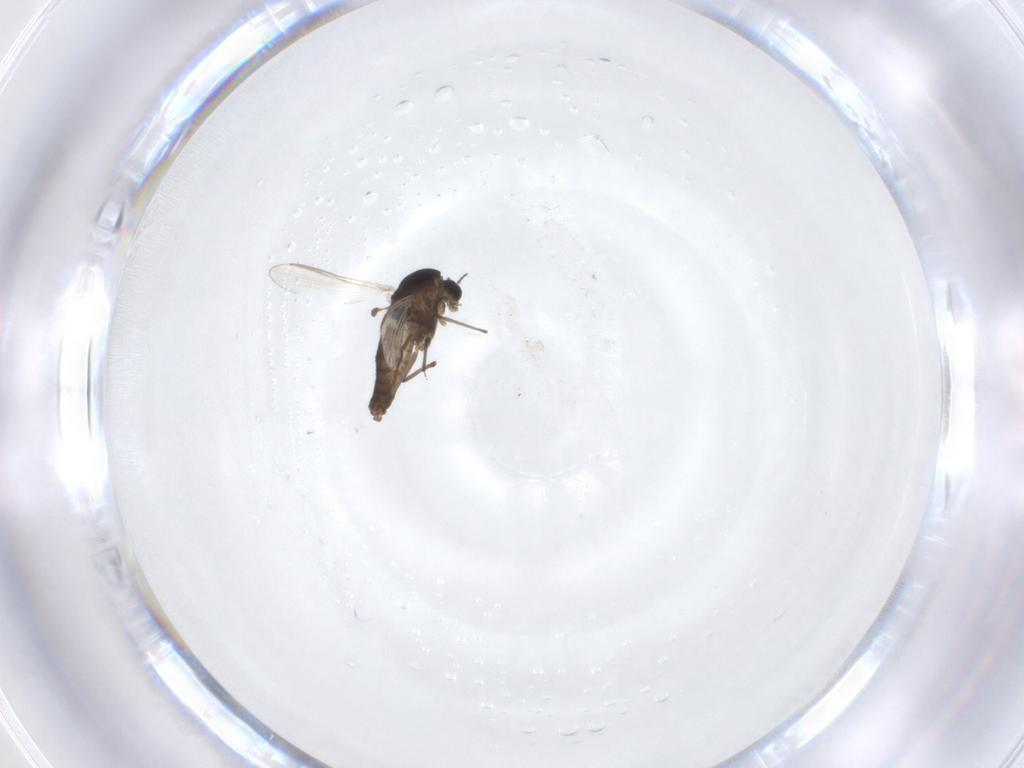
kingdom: Animalia
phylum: Arthropoda
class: Insecta
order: Diptera
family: Chironomidae
